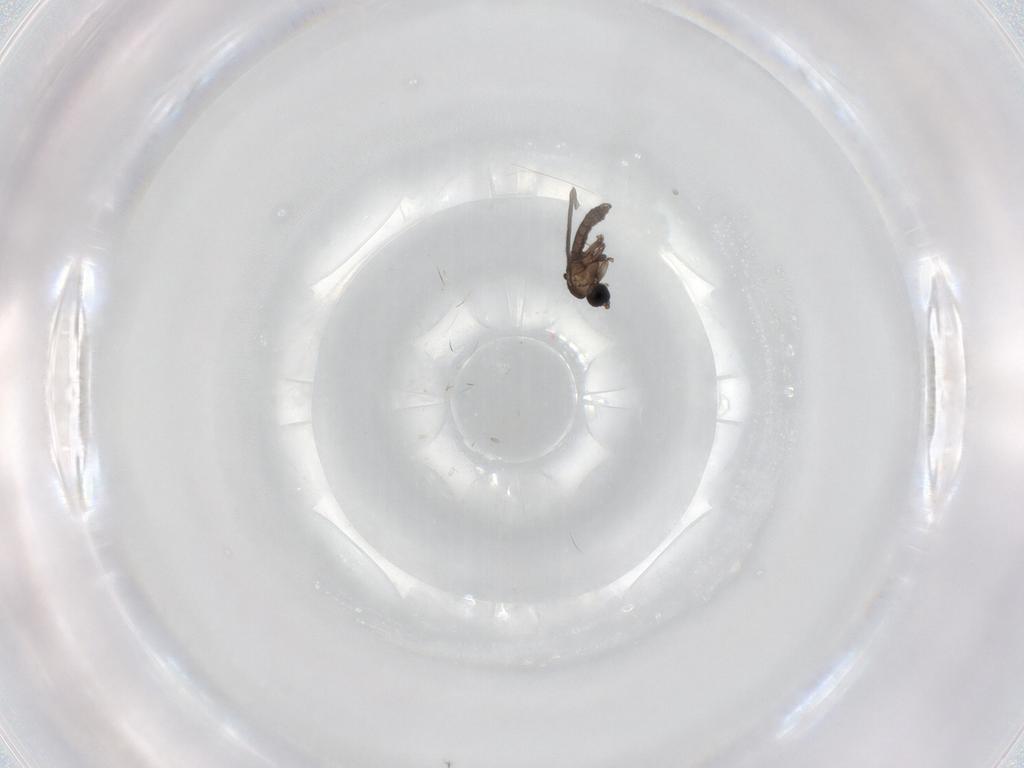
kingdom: Animalia
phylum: Arthropoda
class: Insecta
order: Diptera
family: Sciaridae
